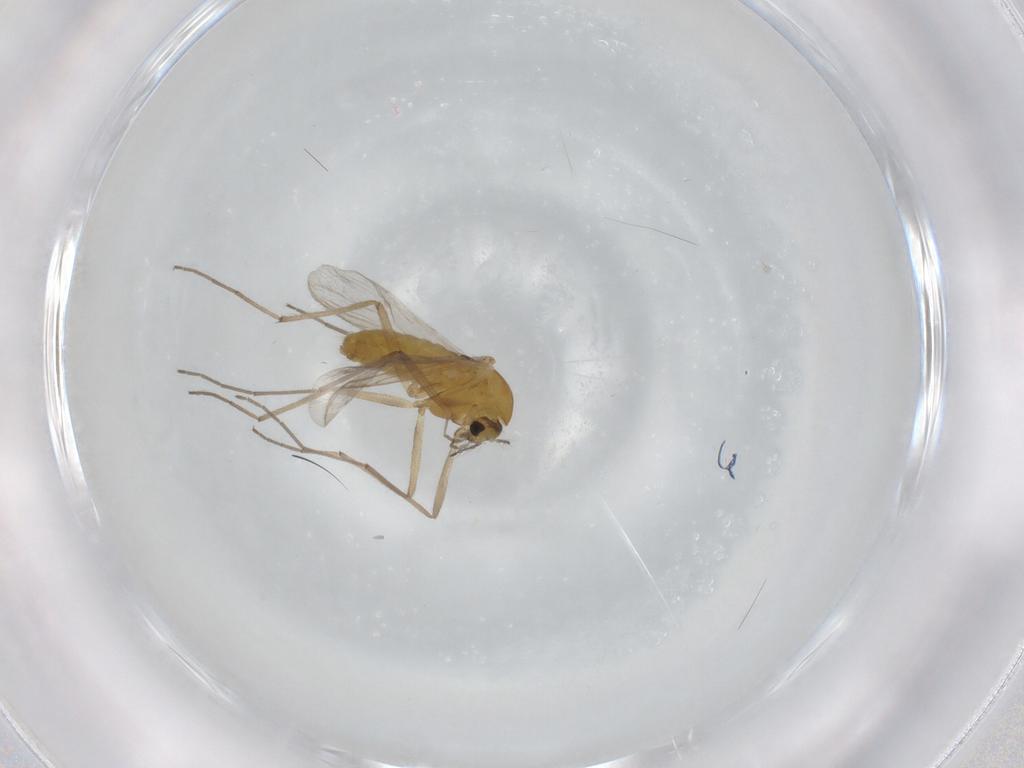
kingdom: Animalia
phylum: Arthropoda
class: Insecta
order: Diptera
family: Chironomidae
